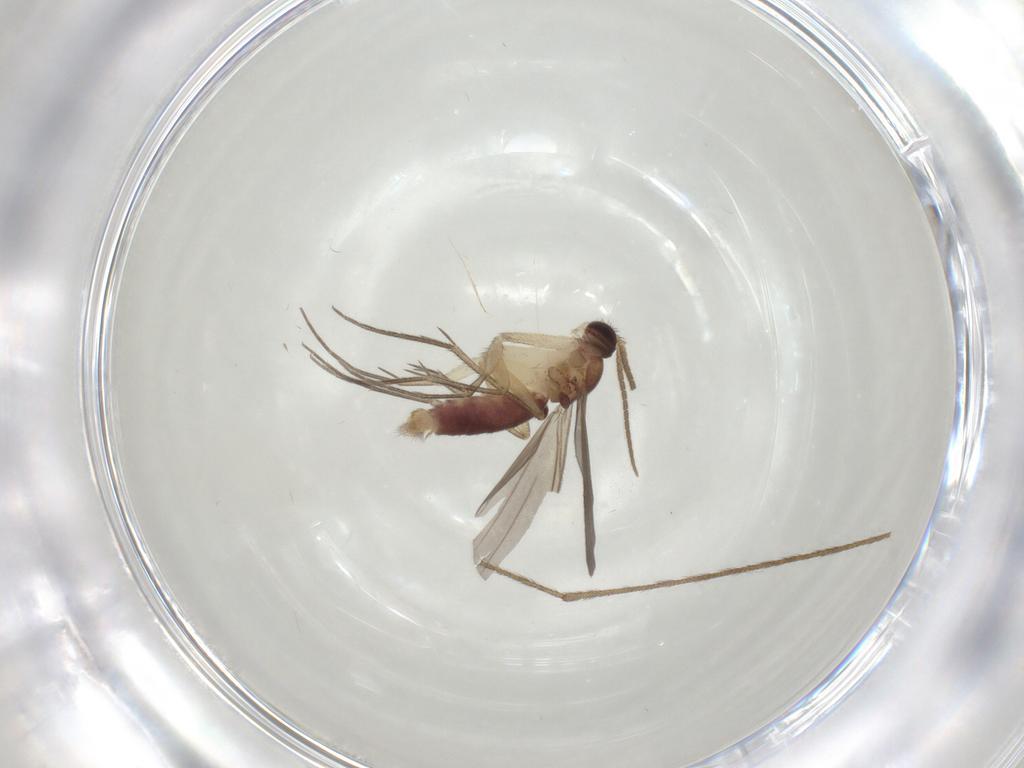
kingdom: Animalia
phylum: Arthropoda
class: Insecta
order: Diptera
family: Mycetophilidae
